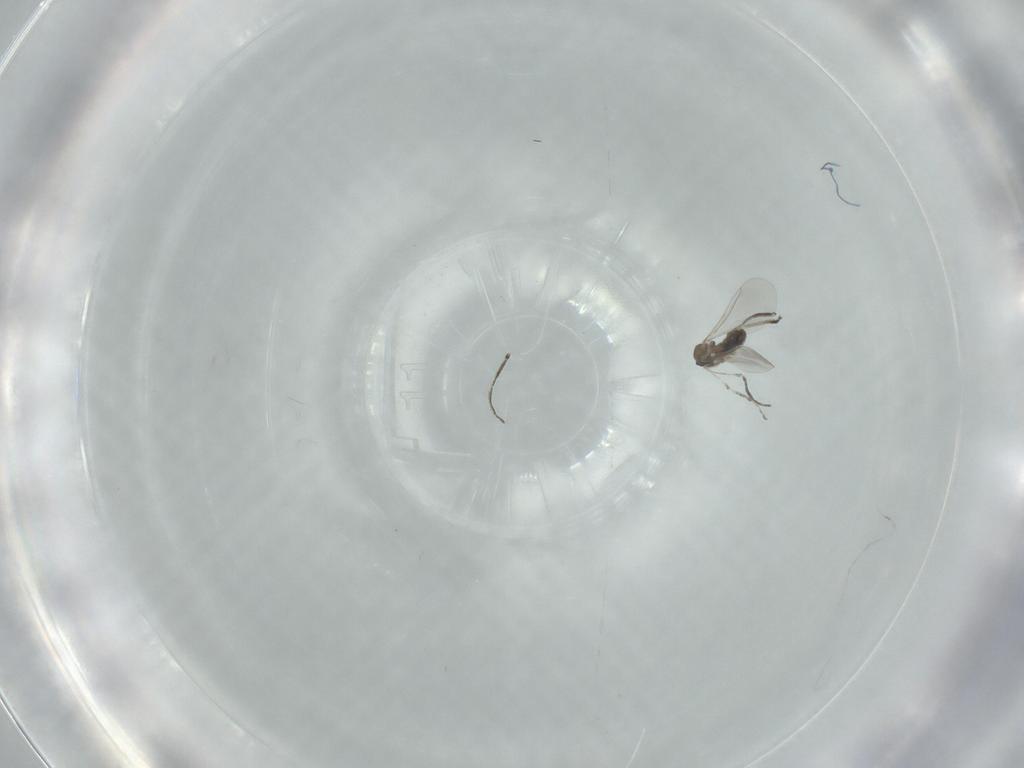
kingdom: Animalia
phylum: Arthropoda
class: Insecta
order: Diptera
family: Cecidomyiidae
